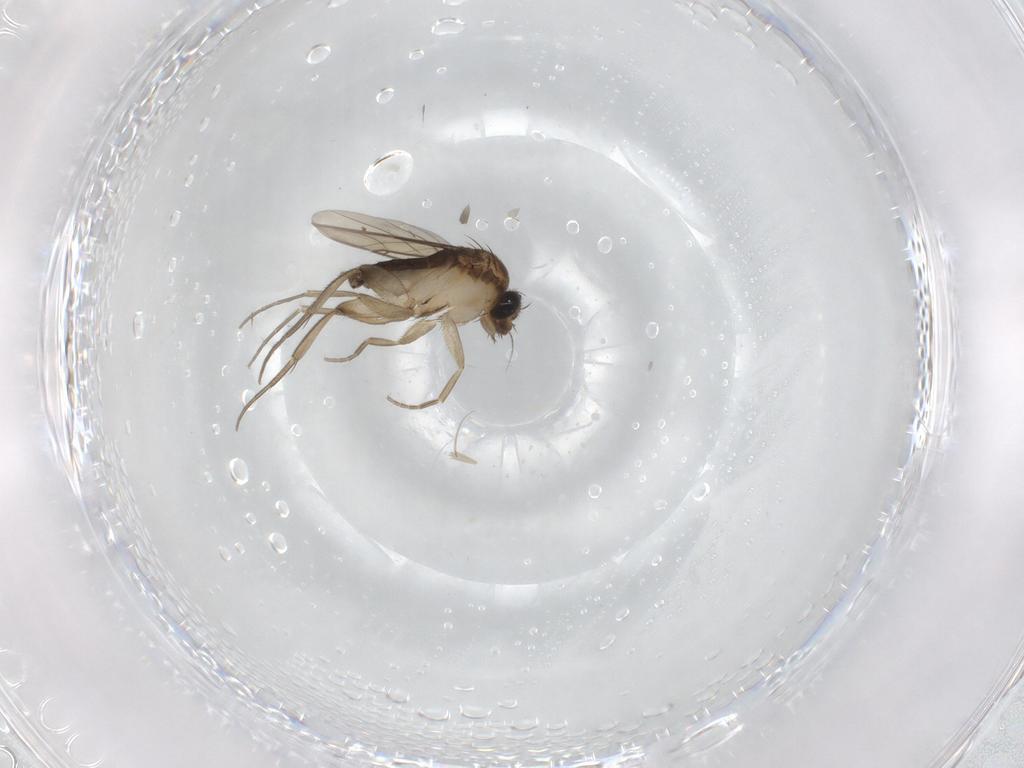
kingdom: Animalia
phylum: Arthropoda
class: Insecta
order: Diptera
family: Phoridae
